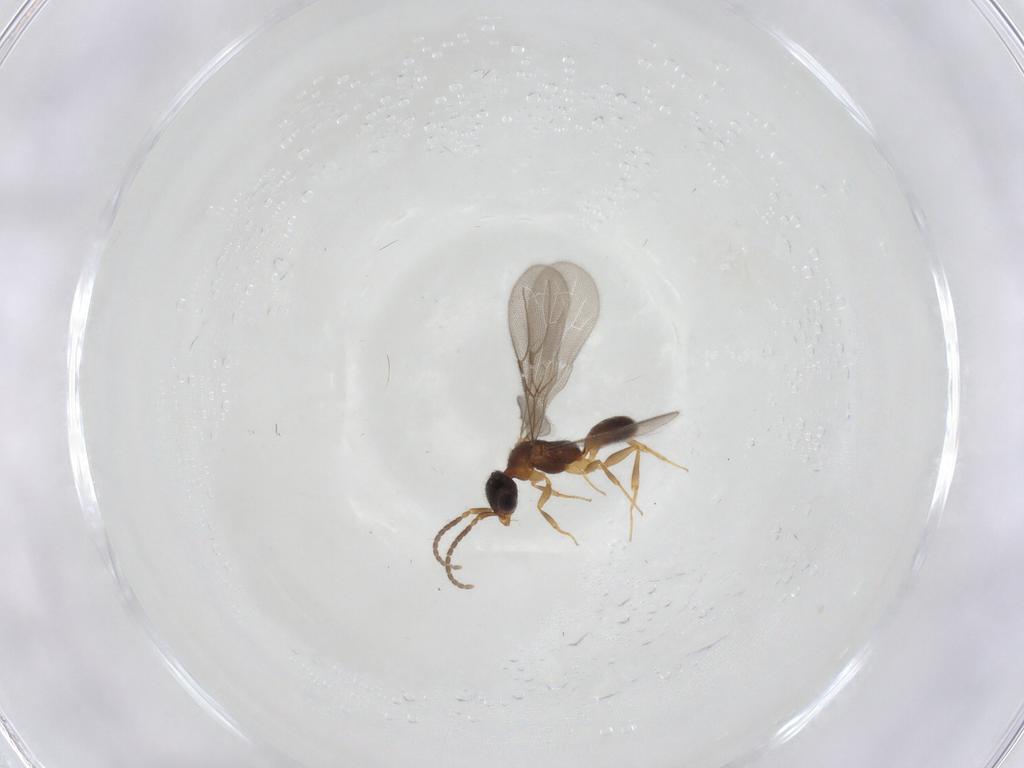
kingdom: Animalia
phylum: Arthropoda
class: Insecta
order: Hymenoptera
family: Bethylidae
